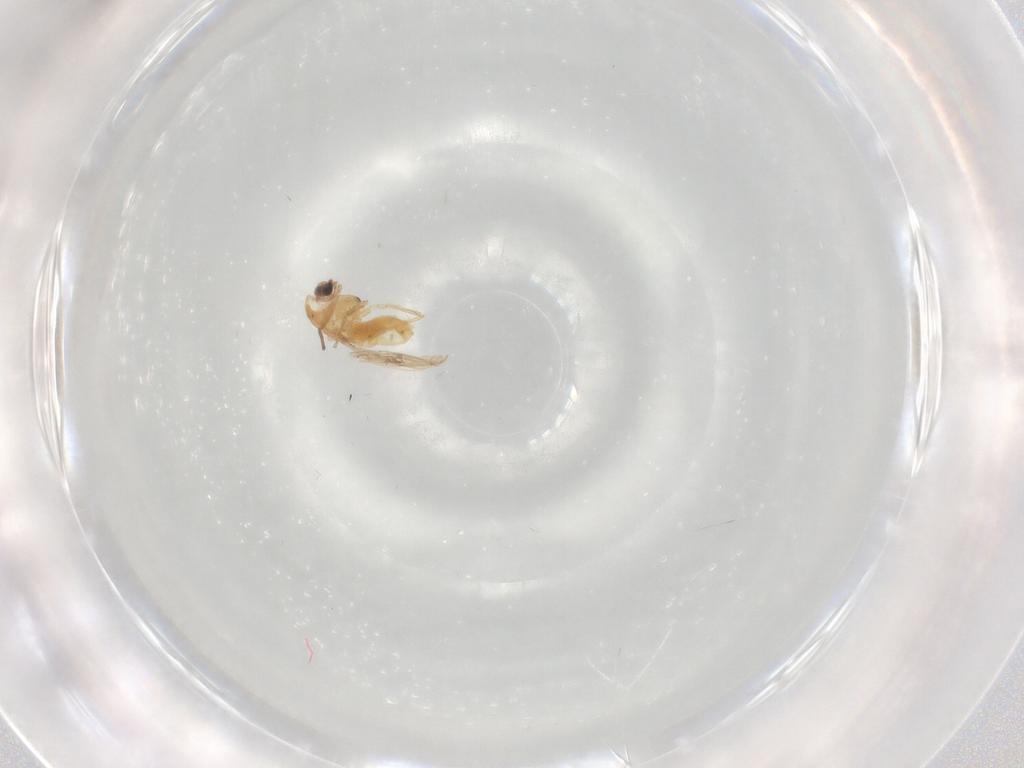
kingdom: Animalia
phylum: Arthropoda
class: Insecta
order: Diptera
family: Chironomidae
